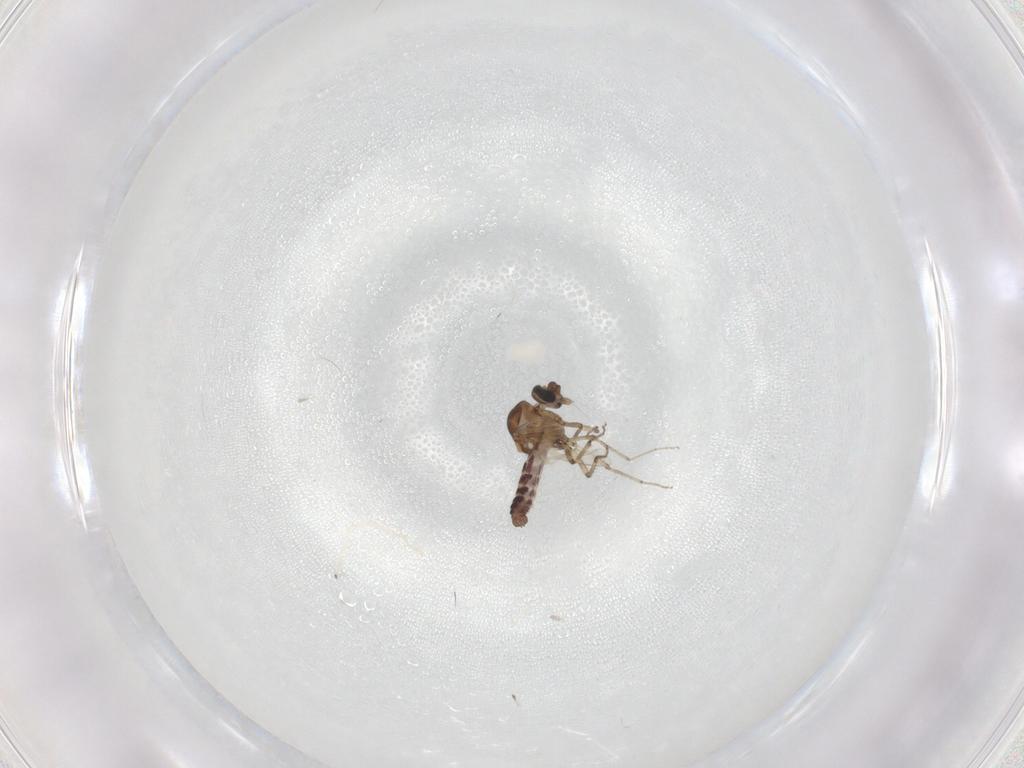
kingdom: Animalia
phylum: Arthropoda
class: Insecta
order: Diptera
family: Ceratopogonidae
